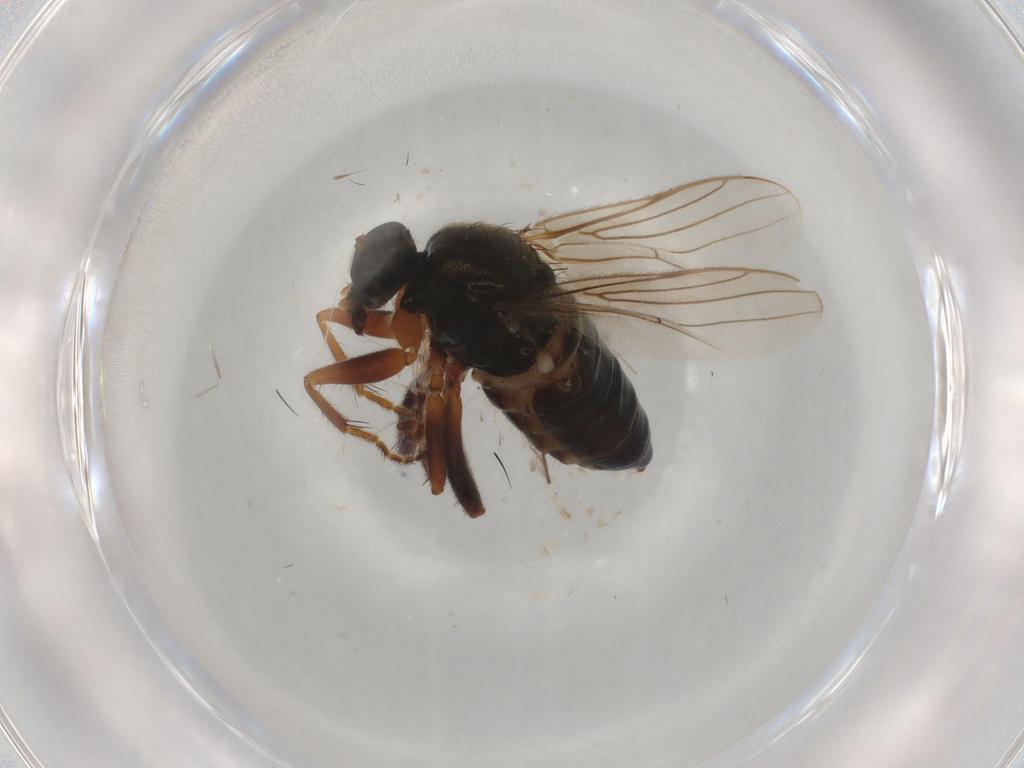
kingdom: Animalia
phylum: Arthropoda
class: Insecta
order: Diptera
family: Hybotidae
